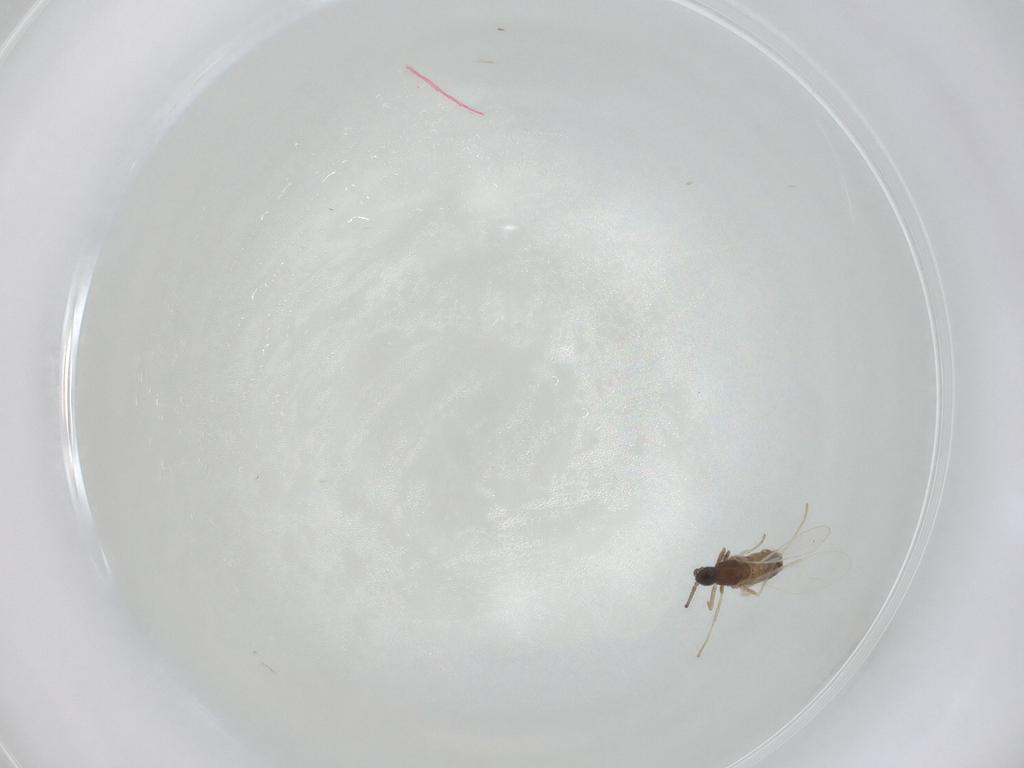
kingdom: Animalia
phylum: Arthropoda
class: Insecta
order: Diptera
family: Cecidomyiidae
